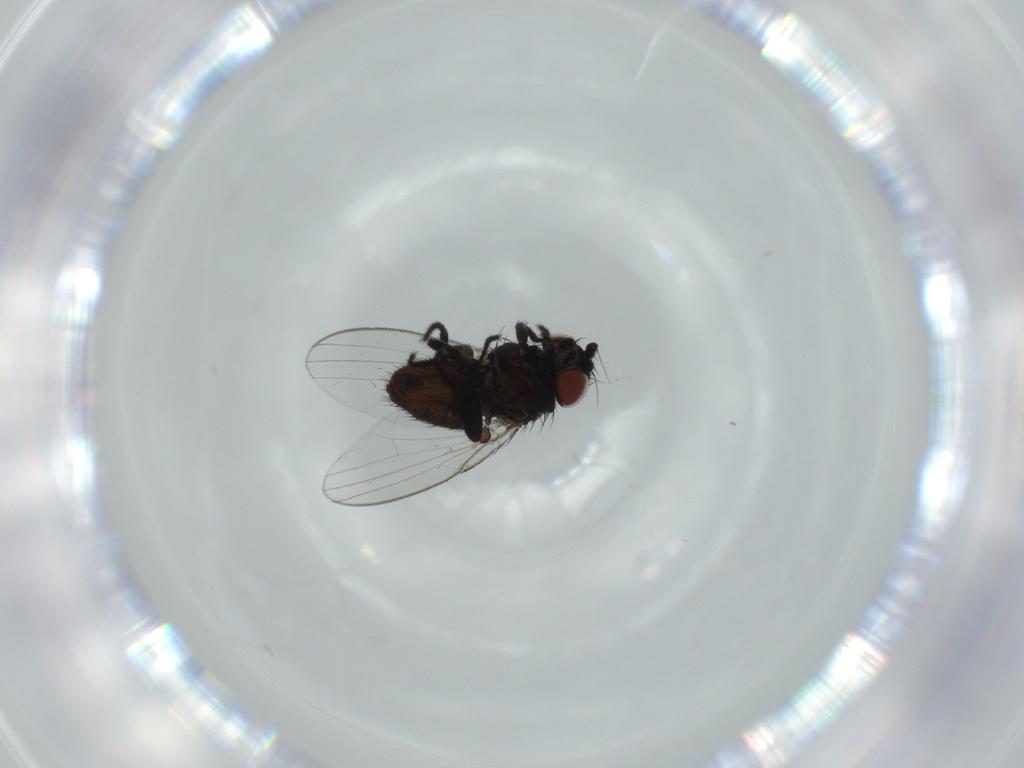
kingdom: Animalia
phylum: Arthropoda
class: Insecta
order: Diptera
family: Milichiidae
